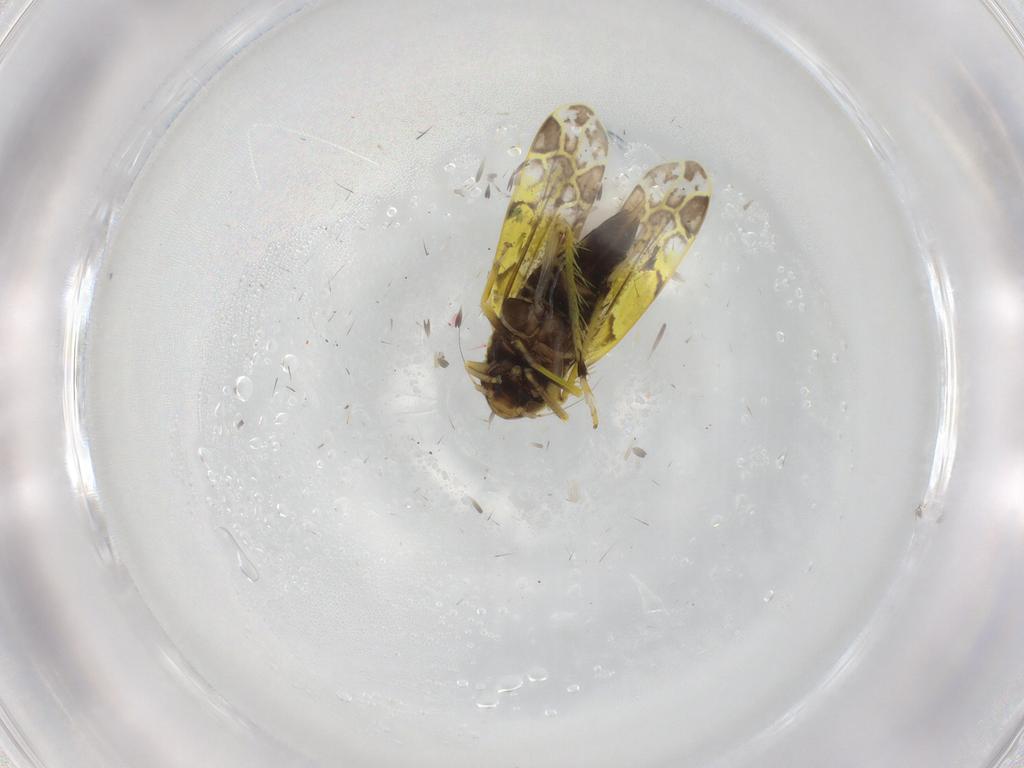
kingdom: Animalia
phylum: Arthropoda
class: Insecta
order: Hemiptera
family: Cicadellidae
